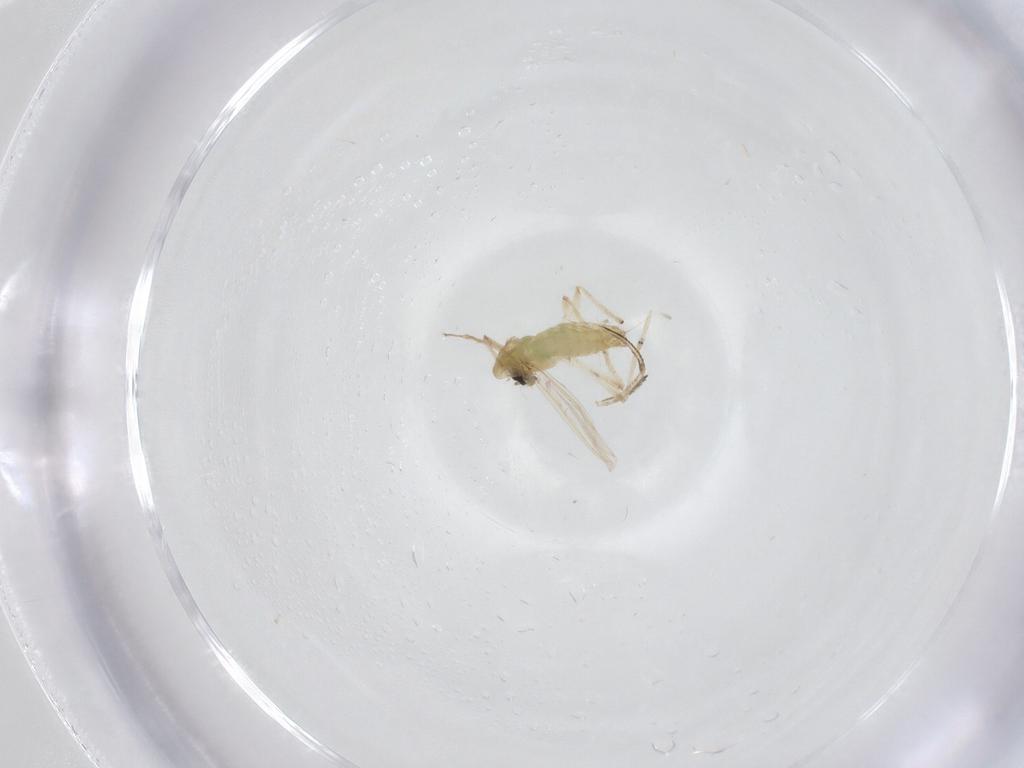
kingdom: Animalia
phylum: Arthropoda
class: Insecta
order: Diptera
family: Chironomidae
